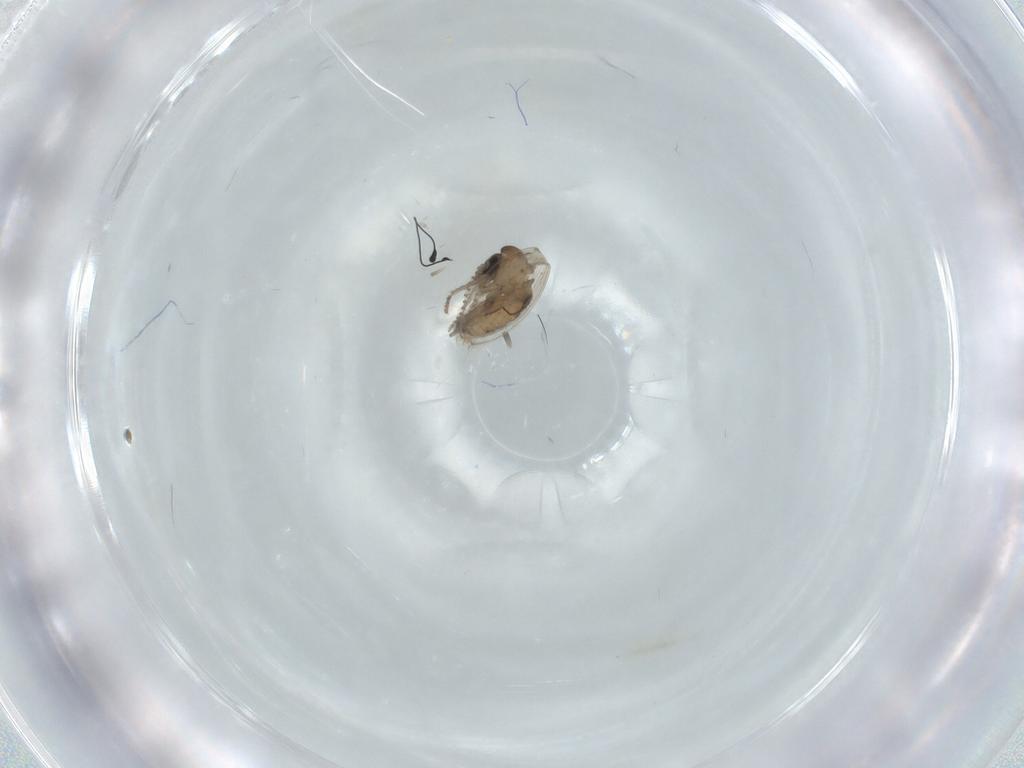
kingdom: Animalia
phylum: Arthropoda
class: Insecta
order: Diptera
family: Psychodidae
